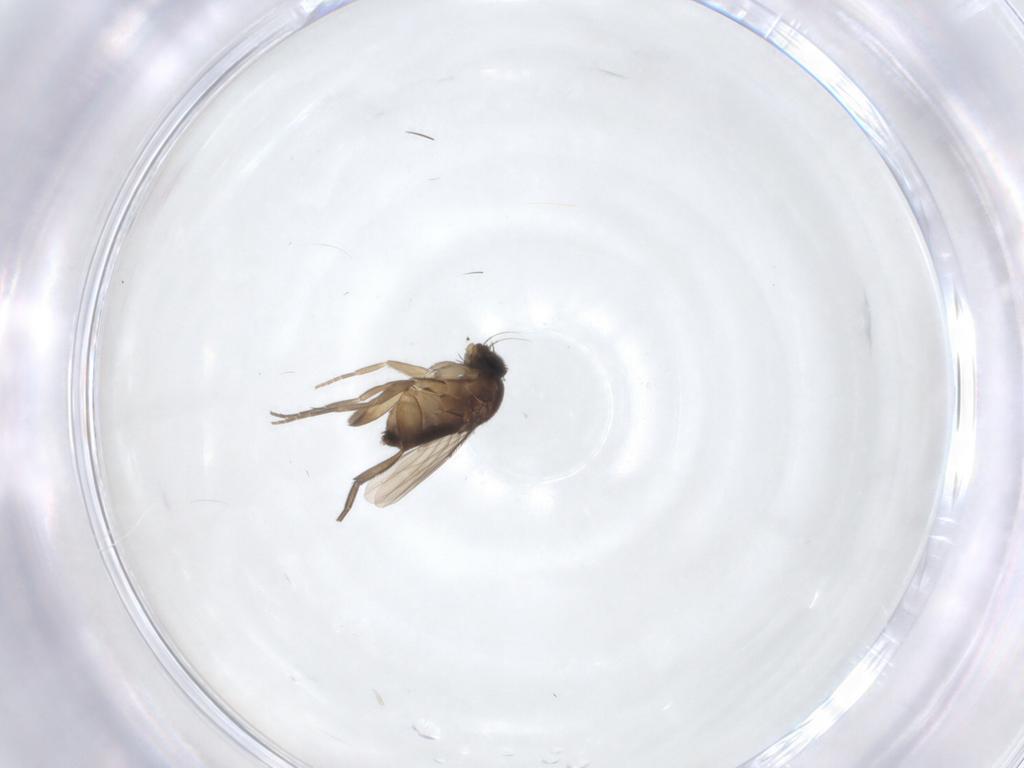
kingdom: Animalia
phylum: Arthropoda
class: Insecta
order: Diptera
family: Phoridae
